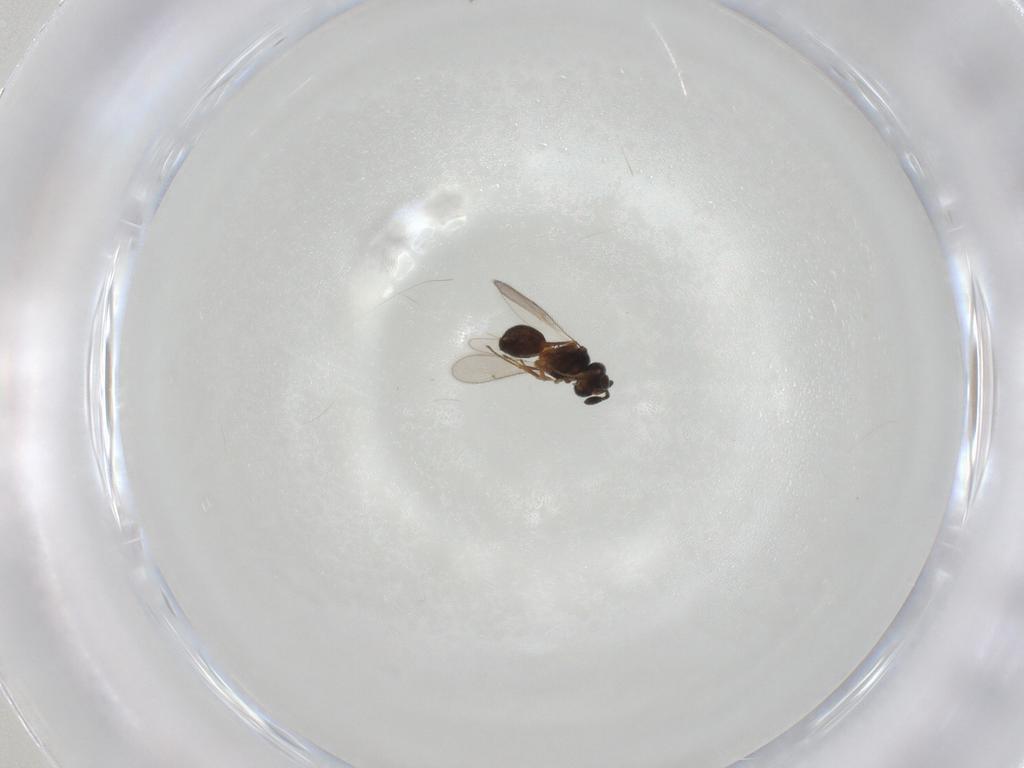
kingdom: Animalia
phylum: Arthropoda
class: Insecta
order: Hymenoptera
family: Scelionidae
